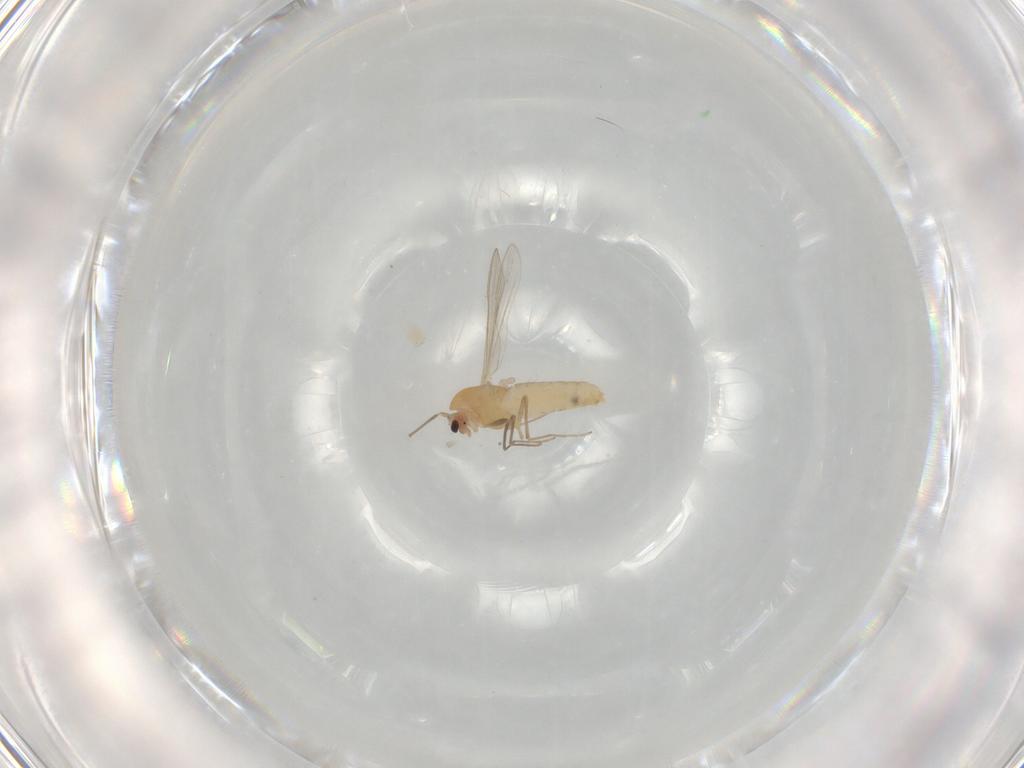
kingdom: Animalia
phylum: Arthropoda
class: Insecta
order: Diptera
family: Chironomidae
